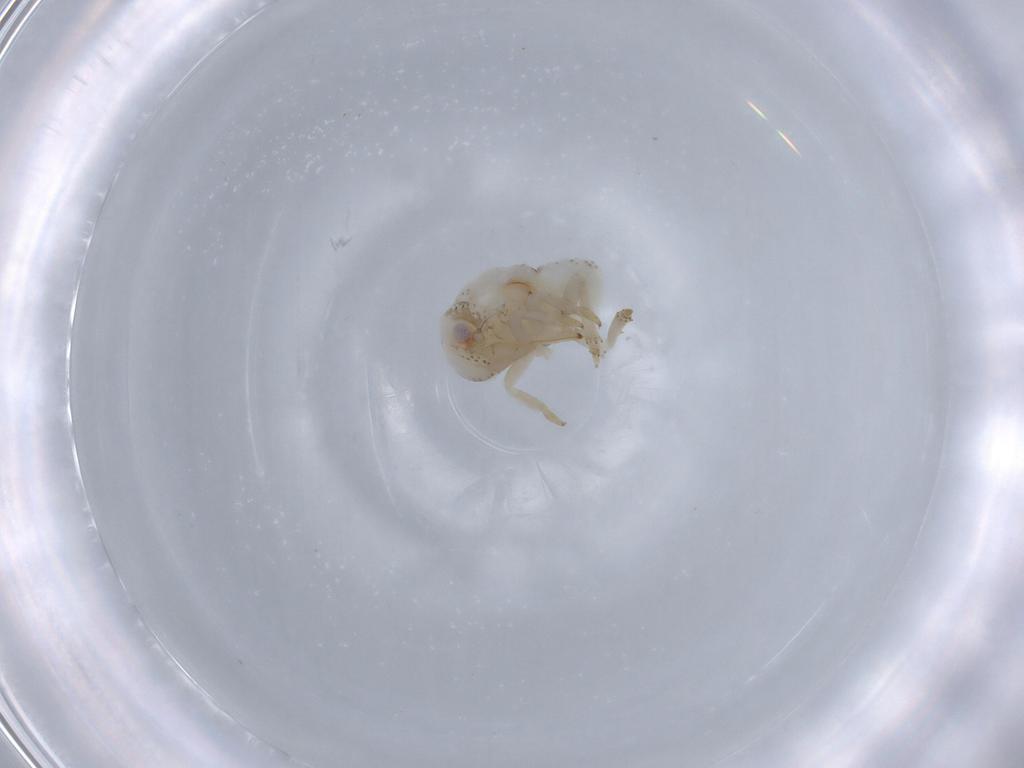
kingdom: Animalia
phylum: Arthropoda
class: Insecta
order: Hemiptera
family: Acanaloniidae
